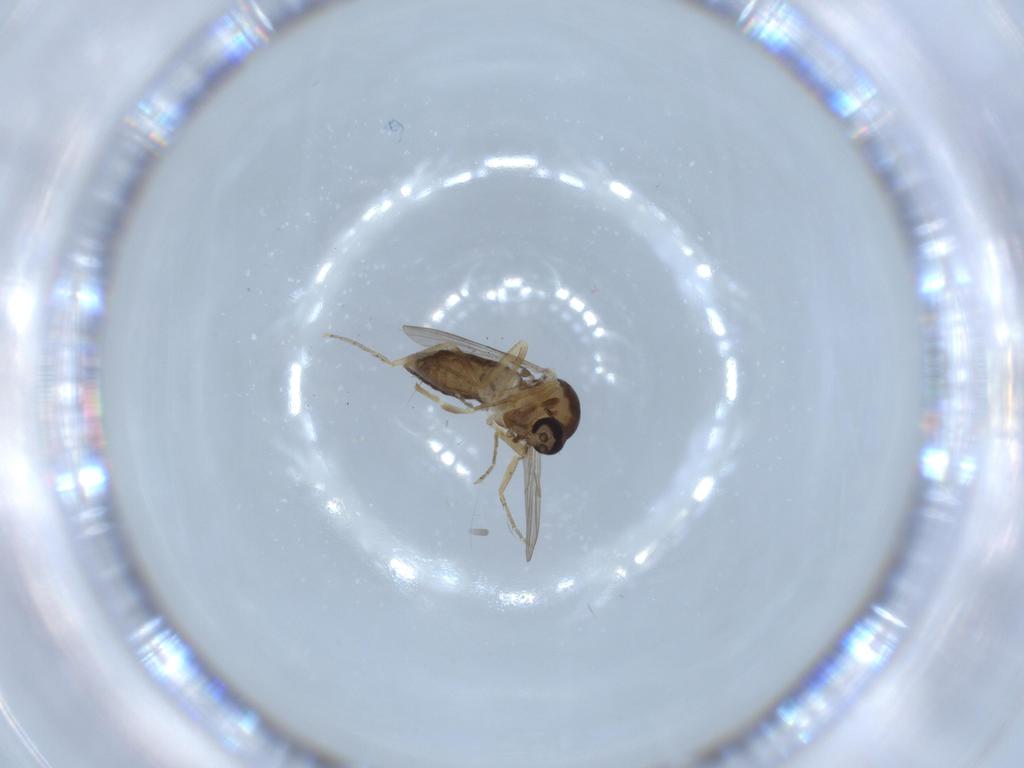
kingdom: Animalia
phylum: Arthropoda
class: Insecta
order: Diptera
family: Ceratopogonidae
